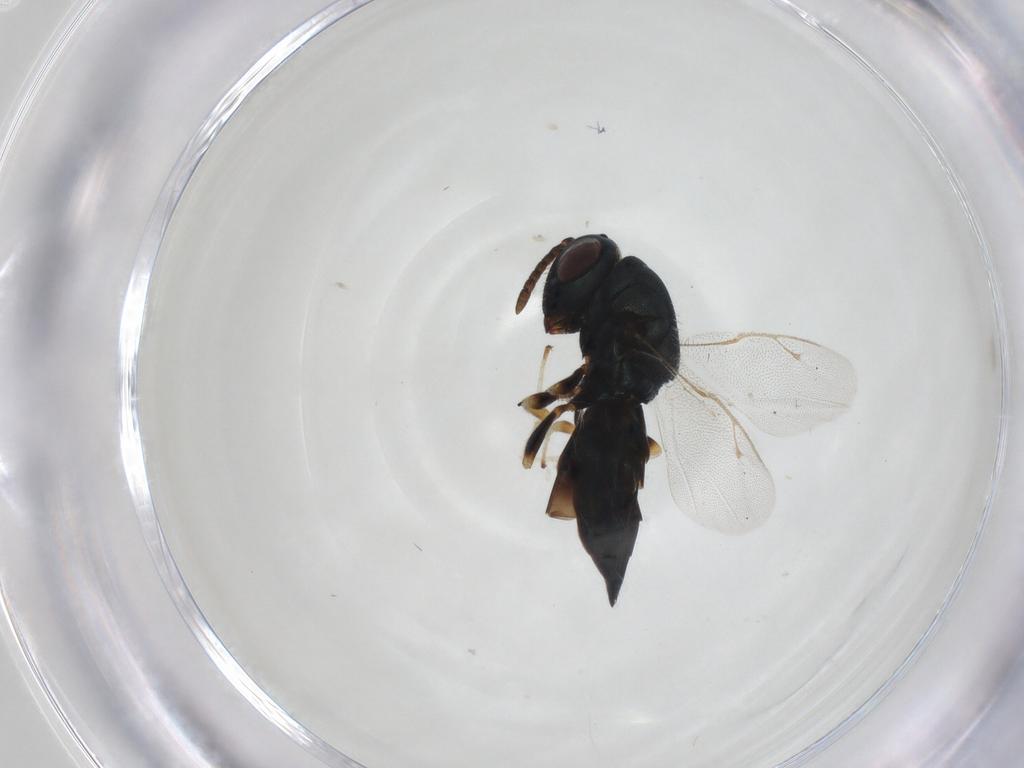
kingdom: Animalia
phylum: Arthropoda
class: Insecta
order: Hymenoptera
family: Pteromalidae
